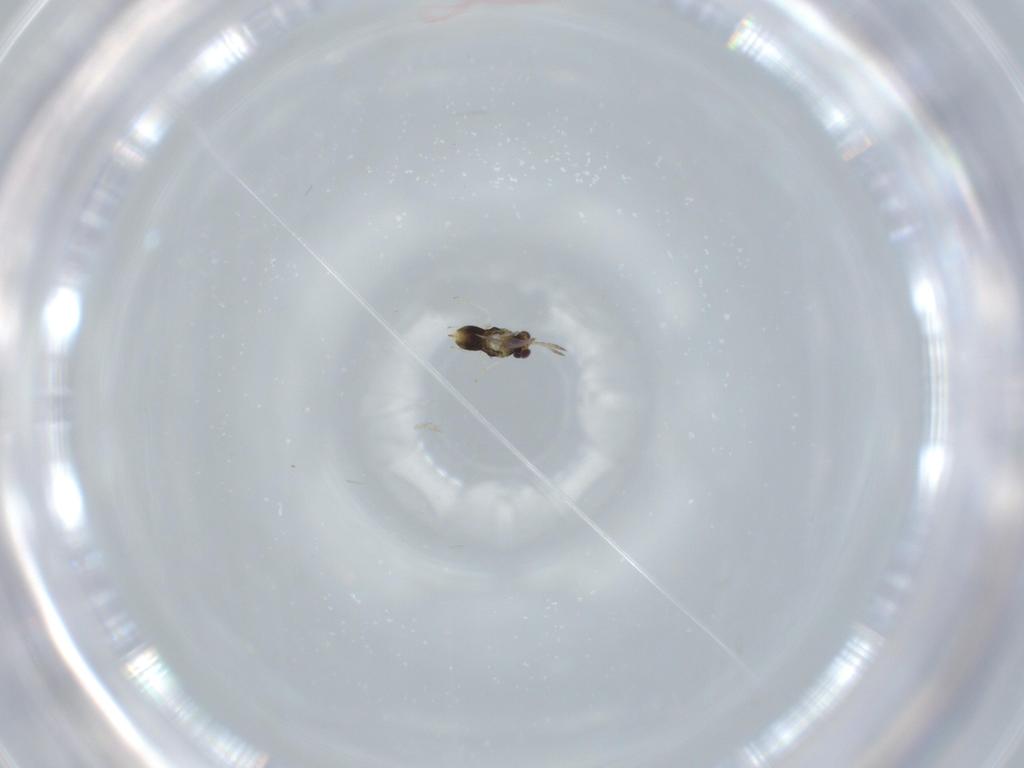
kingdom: Animalia
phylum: Arthropoda
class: Insecta
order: Hymenoptera
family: Aphelinidae
